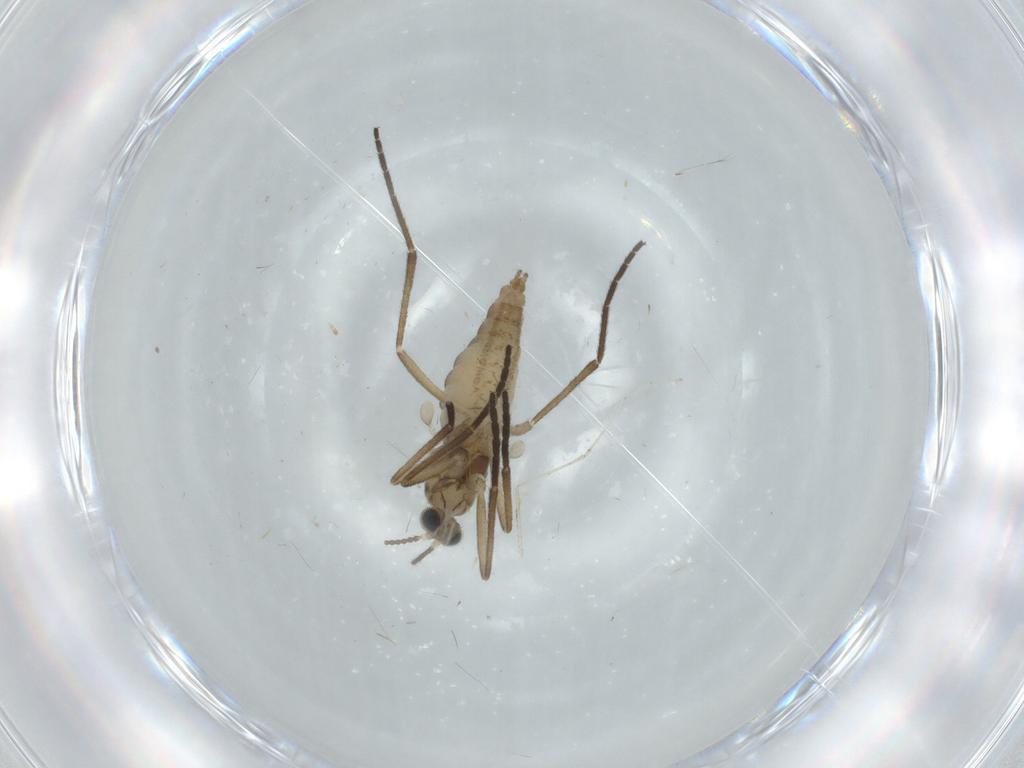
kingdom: Animalia
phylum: Arthropoda
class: Insecta
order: Diptera
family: Cecidomyiidae
